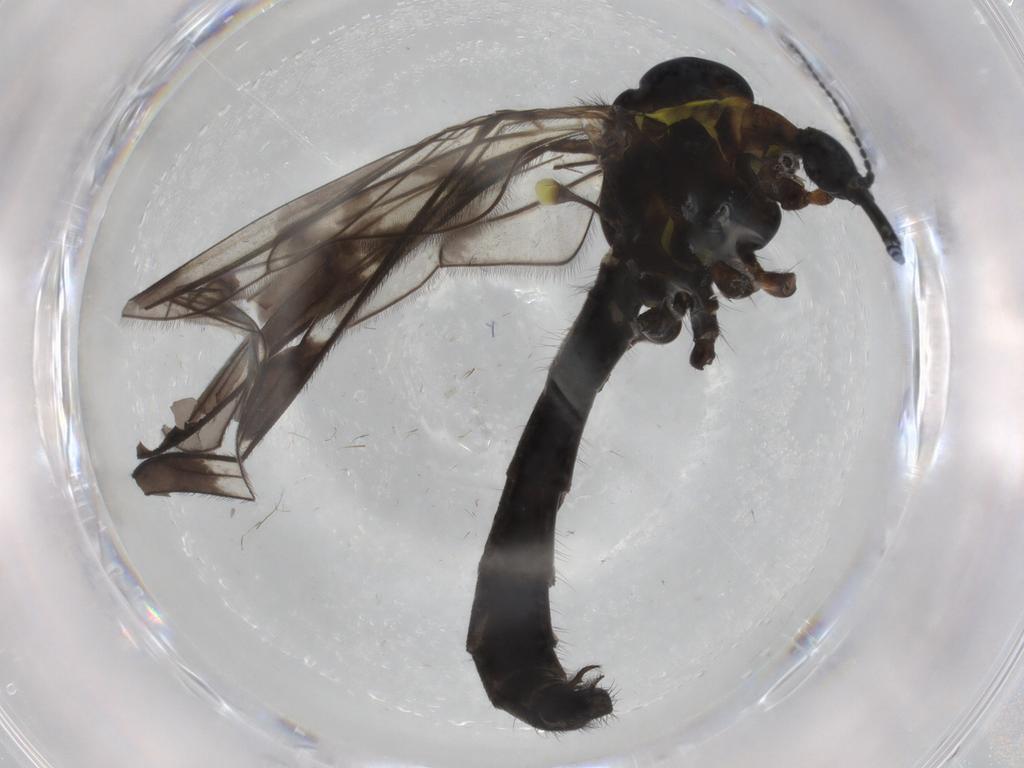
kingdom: Animalia
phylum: Arthropoda
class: Insecta
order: Diptera
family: Limoniidae
